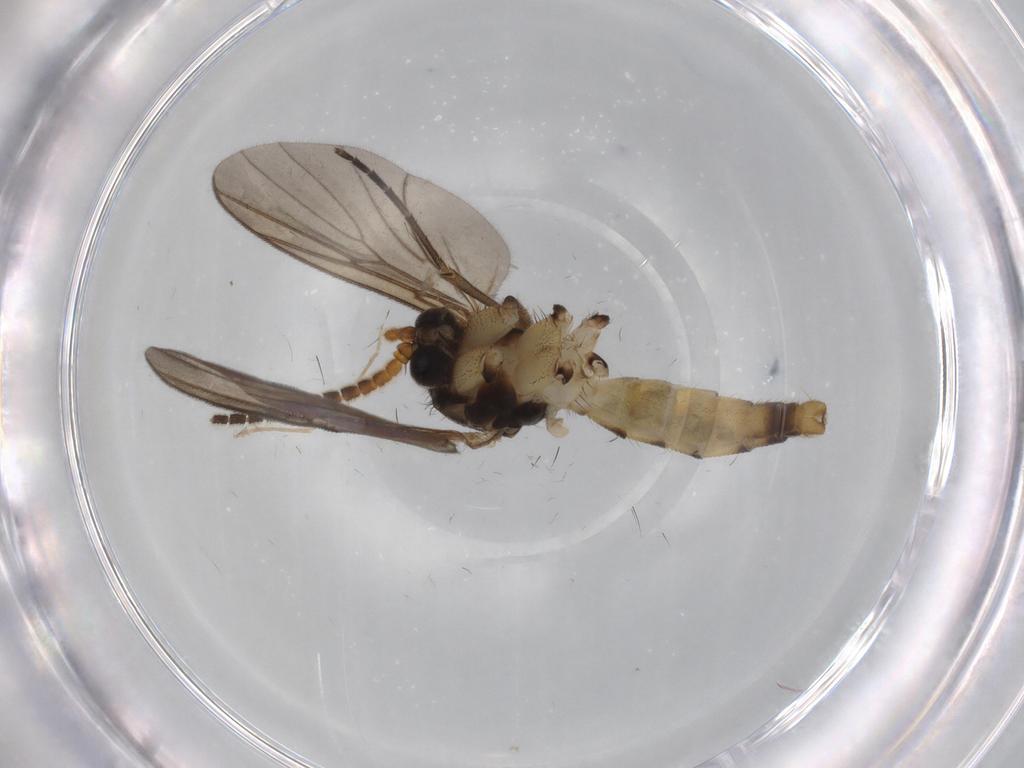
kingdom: Animalia
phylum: Arthropoda
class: Insecta
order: Diptera
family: Calliphoridae
